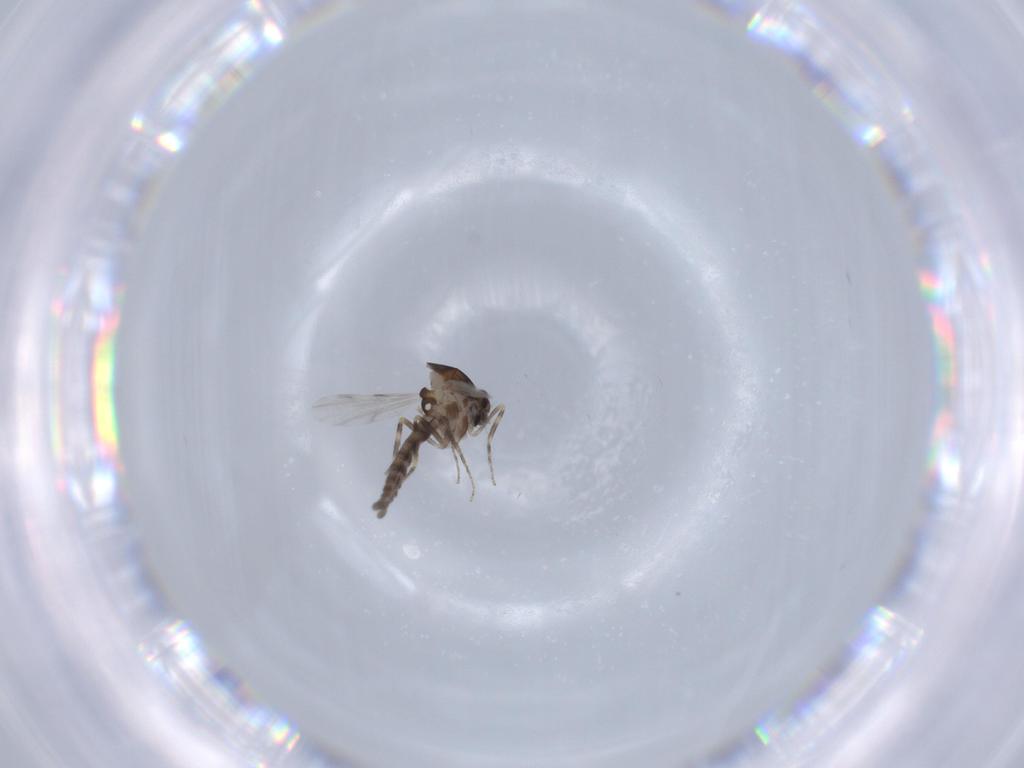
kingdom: Animalia
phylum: Arthropoda
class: Insecta
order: Diptera
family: Ceratopogonidae
